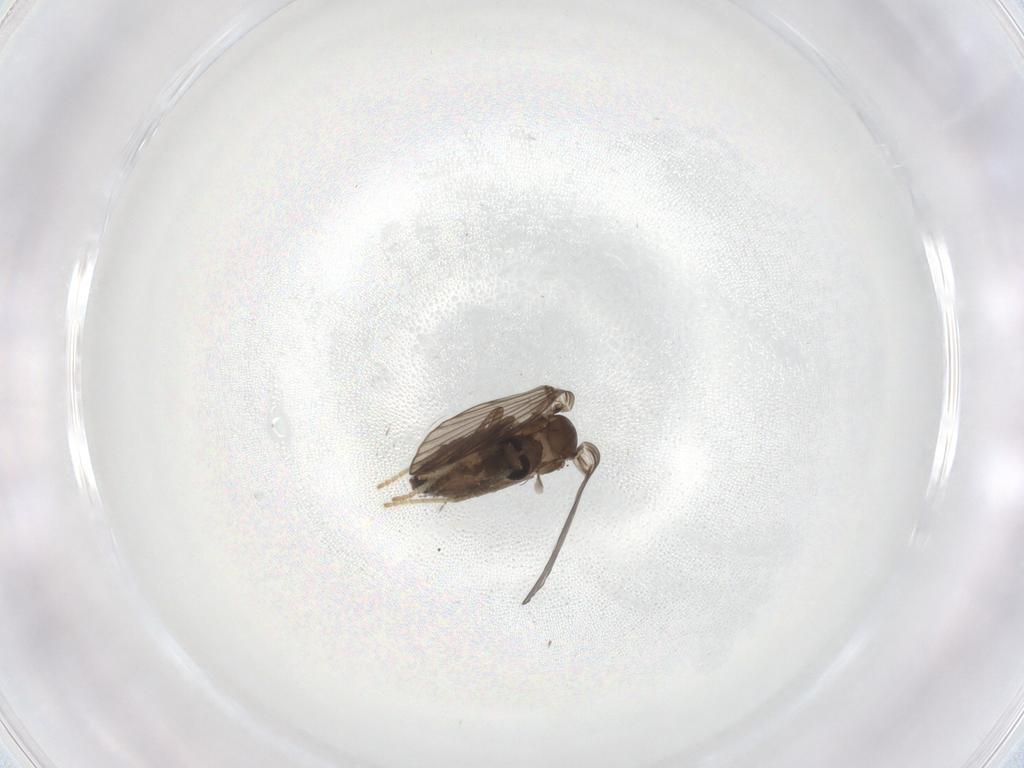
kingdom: Animalia
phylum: Arthropoda
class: Insecta
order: Diptera
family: Psychodidae
